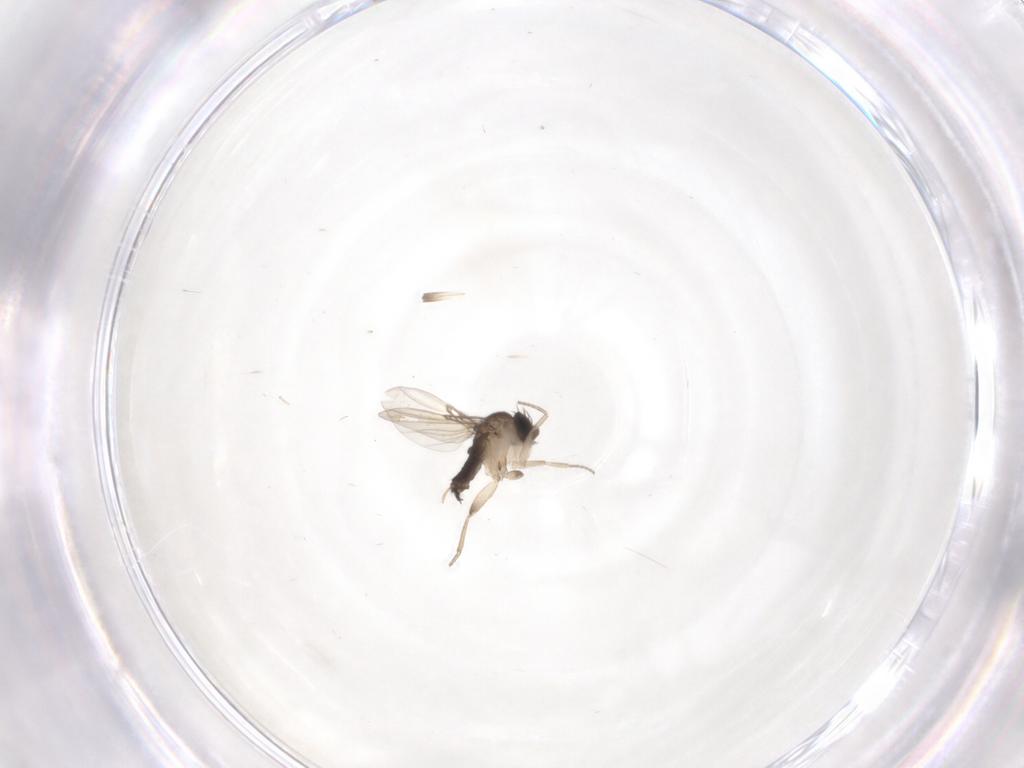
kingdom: Animalia
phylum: Arthropoda
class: Insecta
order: Diptera
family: Phoridae
